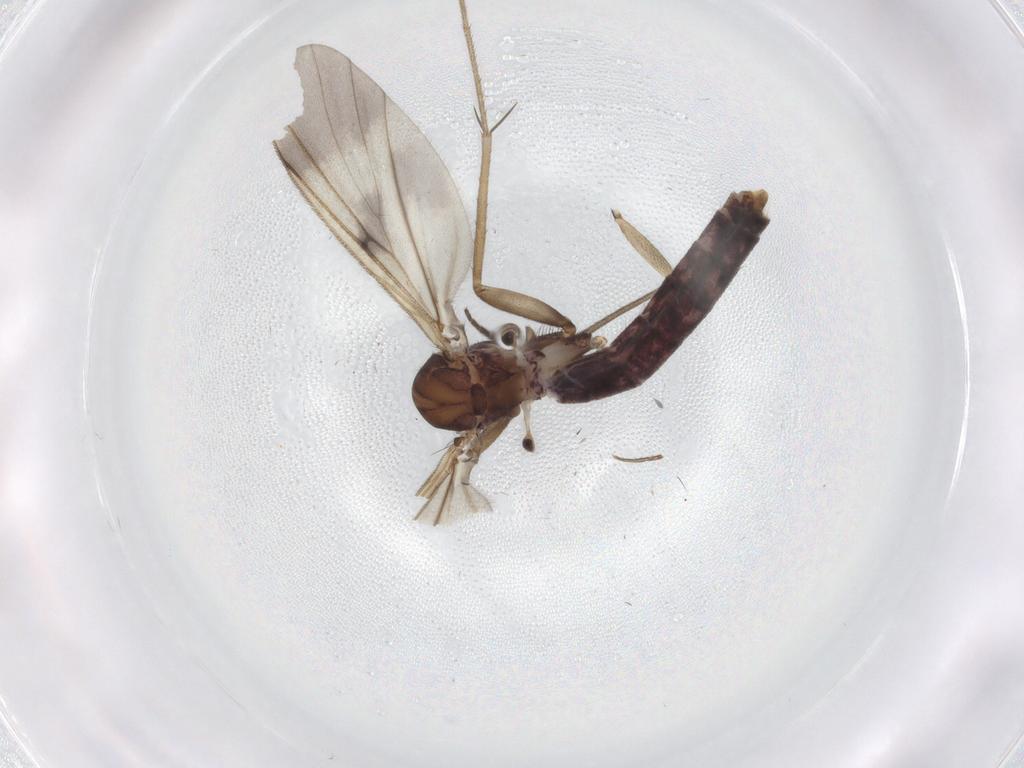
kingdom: Animalia
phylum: Arthropoda
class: Insecta
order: Diptera
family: Mycetophilidae
